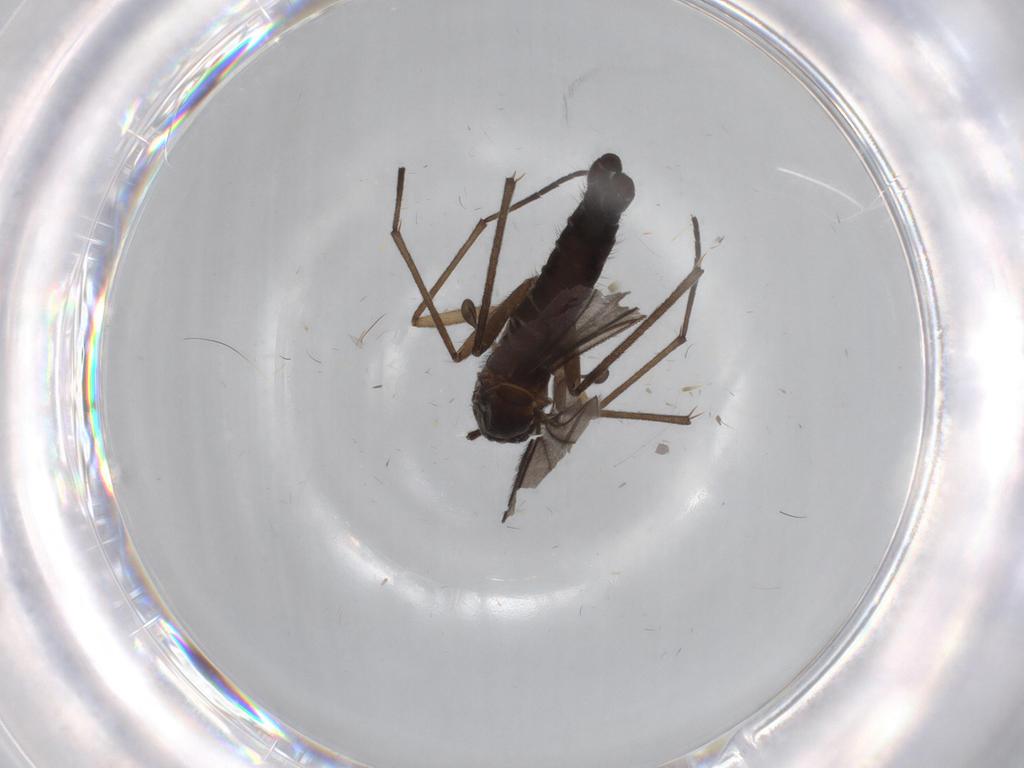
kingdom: Animalia
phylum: Arthropoda
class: Insecta
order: Diptera
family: Sciaridae
